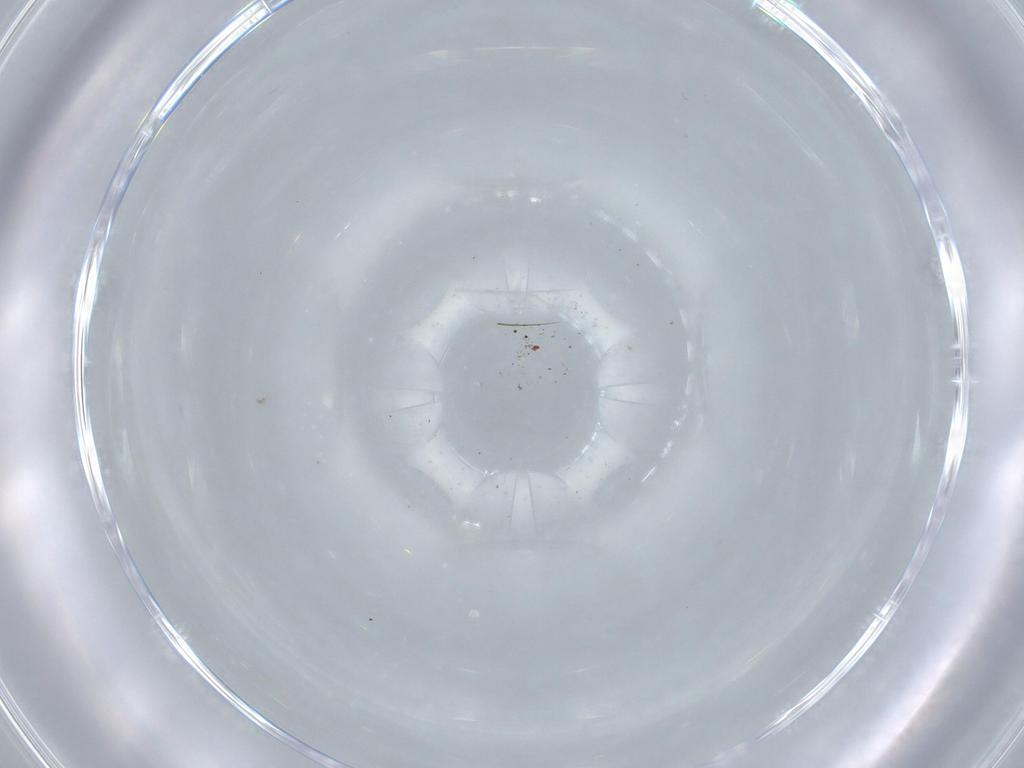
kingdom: Animalia
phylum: Arthropoda
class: Insecta
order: Diptera
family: Cecidomyiidae
